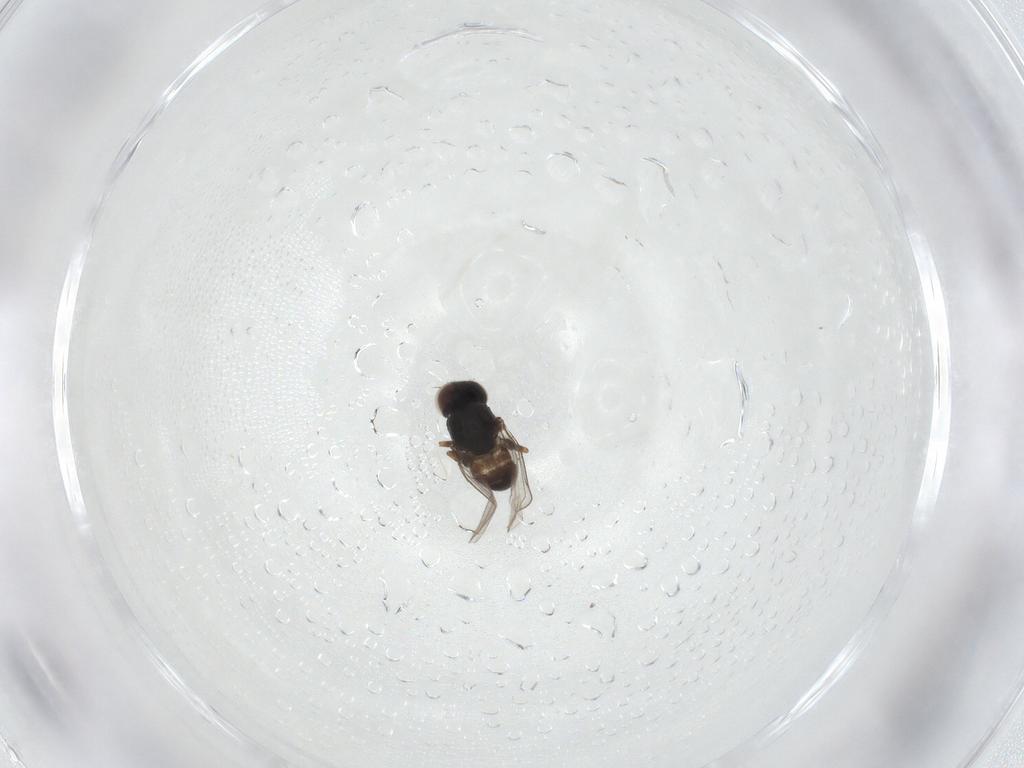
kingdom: Animalia
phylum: Arthropoda
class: Insecta
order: Diptera
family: Chloropidae
